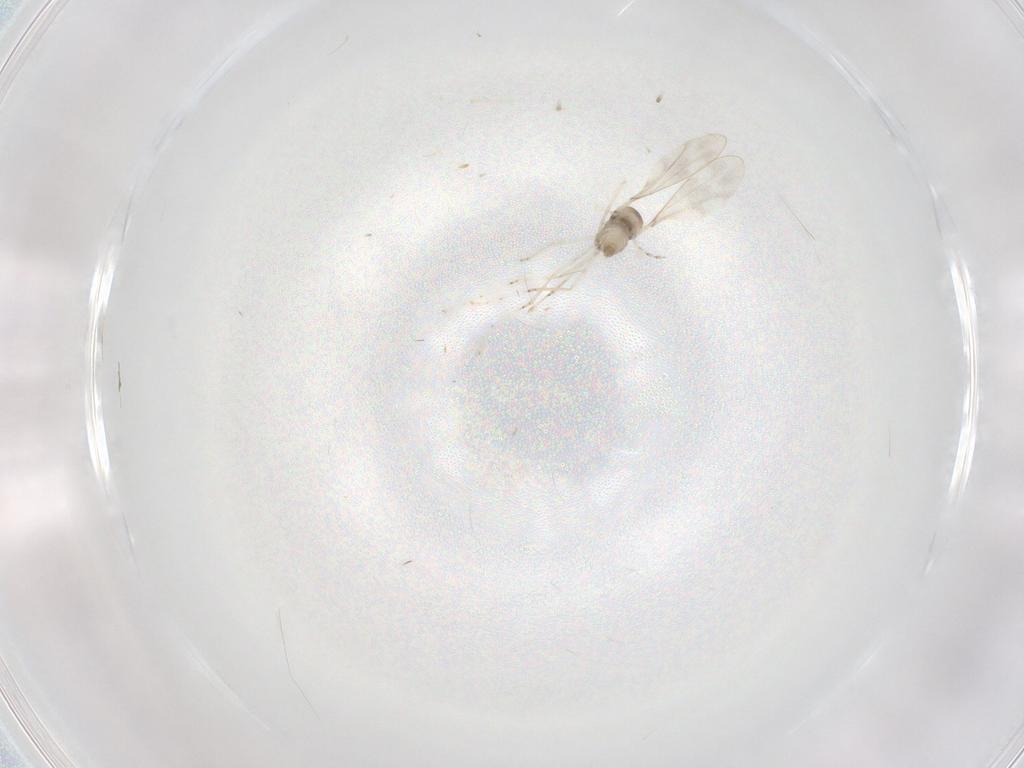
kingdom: Animalia
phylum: Arthropoda
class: Insecta
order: Diptera
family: Cecidomyiidae
